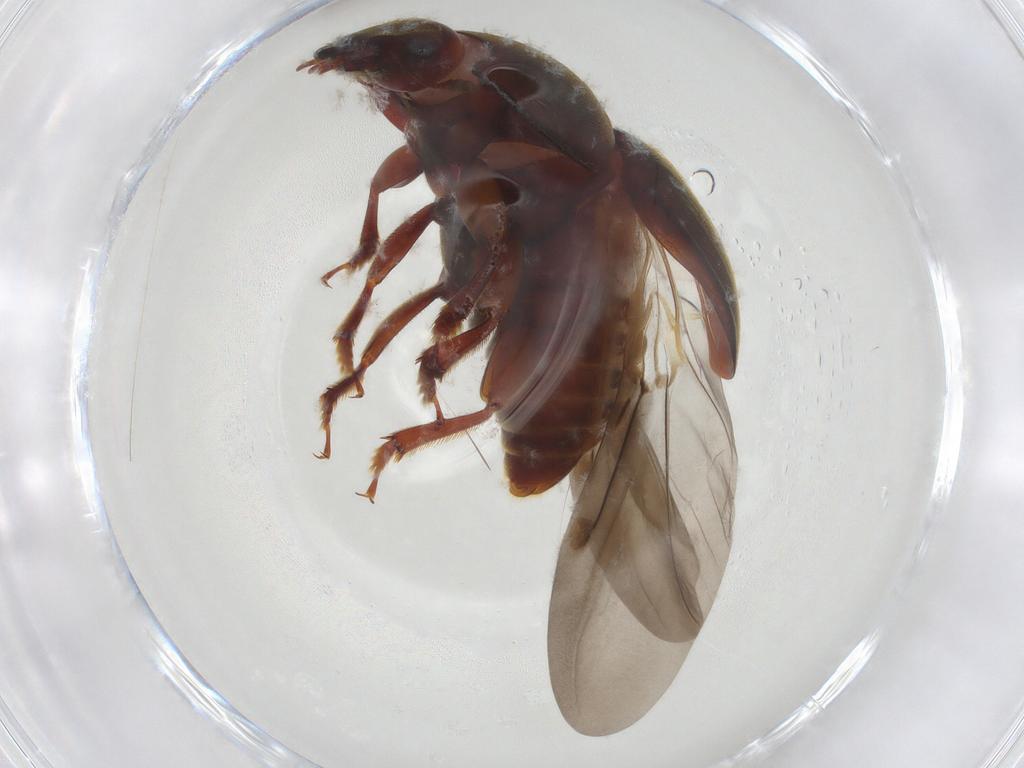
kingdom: Animalia
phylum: Arthropoda
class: Insecta
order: Coleoptera
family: Nitidulidae
